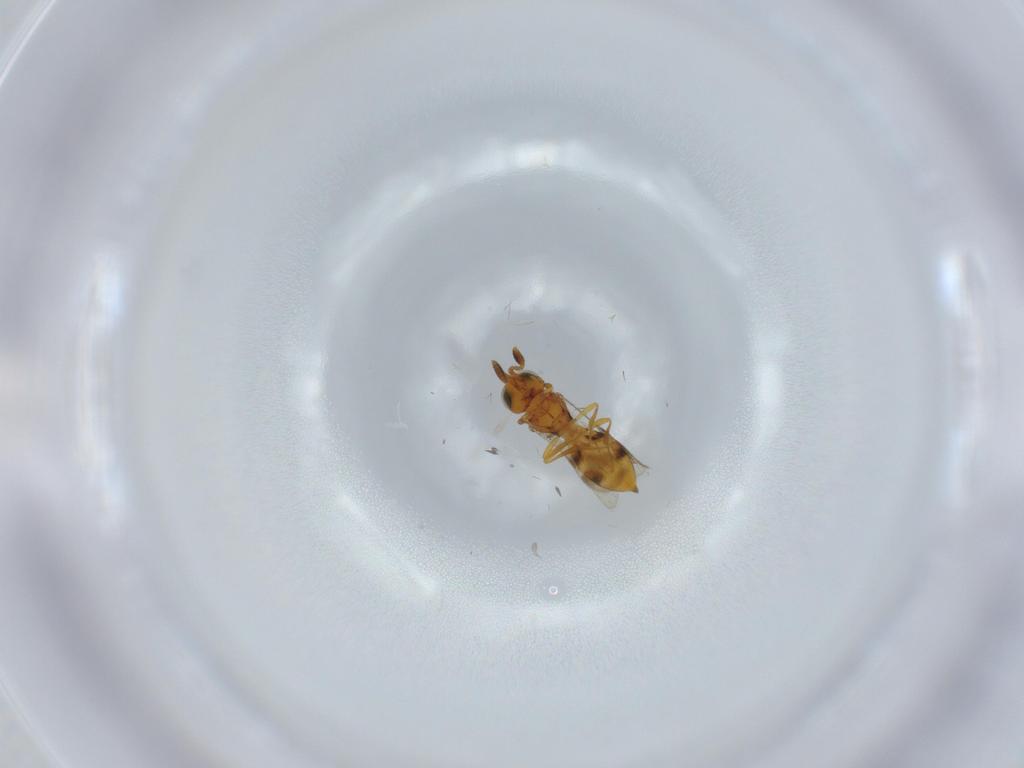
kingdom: Animalia
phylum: Arthropoda
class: Insecta
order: Hymenoptera
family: Scelionidae
